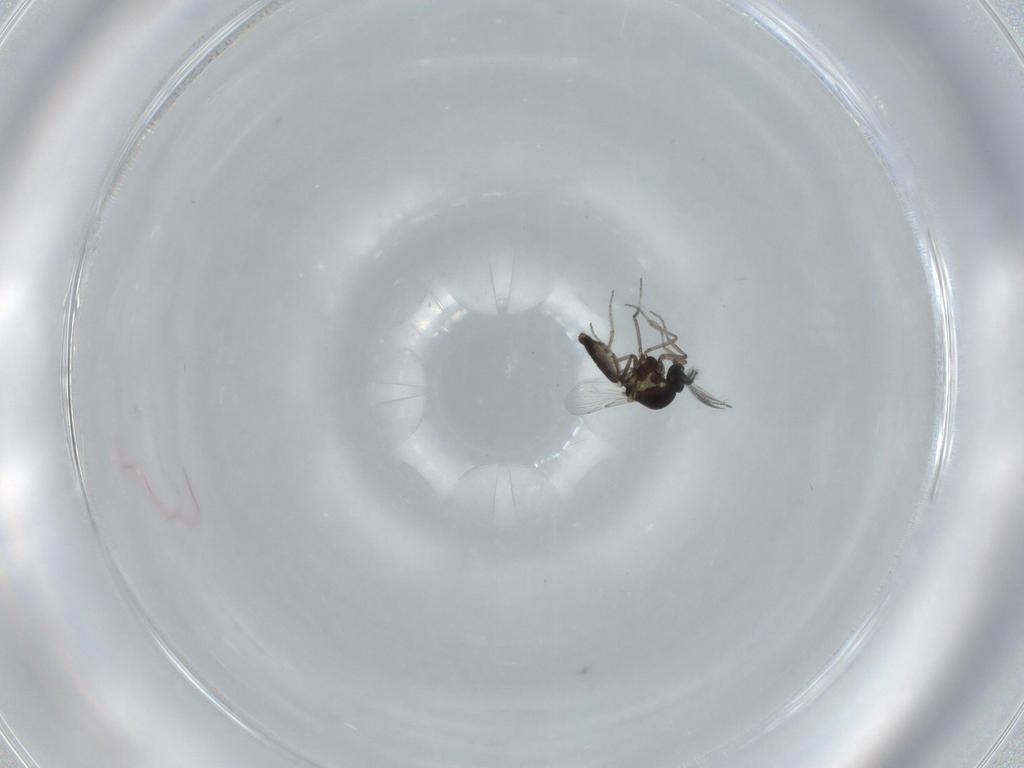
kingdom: Animalia
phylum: Arthropoda
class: Insecta
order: Diptera
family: Ceratopogonidae
